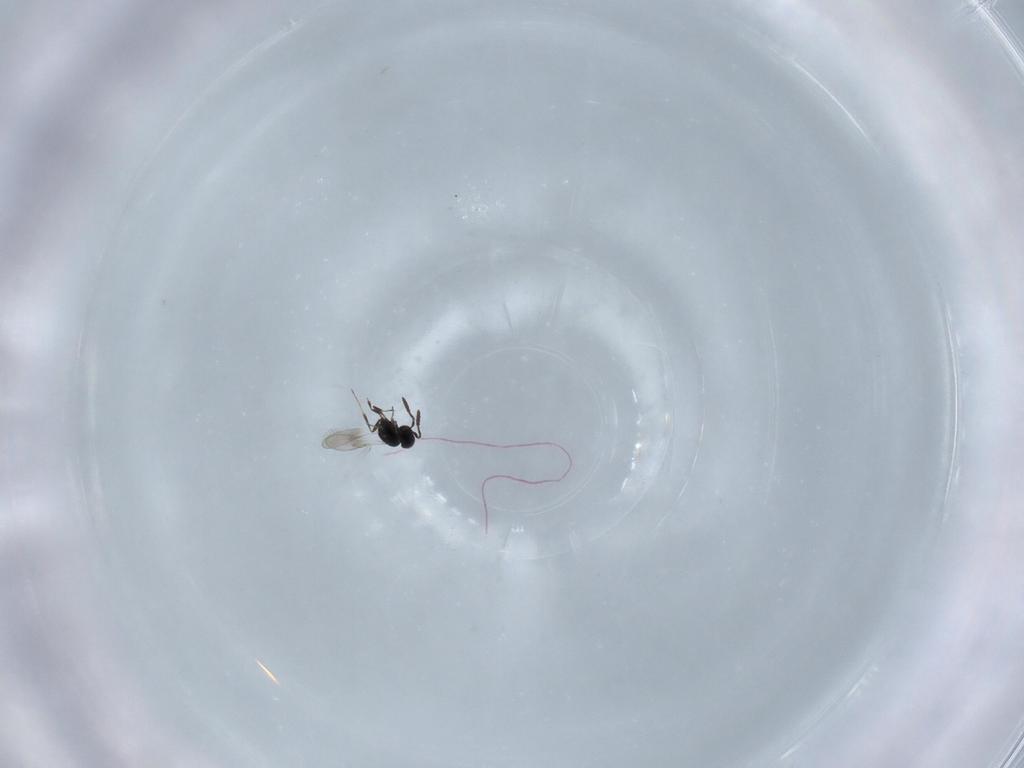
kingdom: Animalia
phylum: Arthropoda
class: Insecta
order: Hymenoptera
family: Scelionidae
